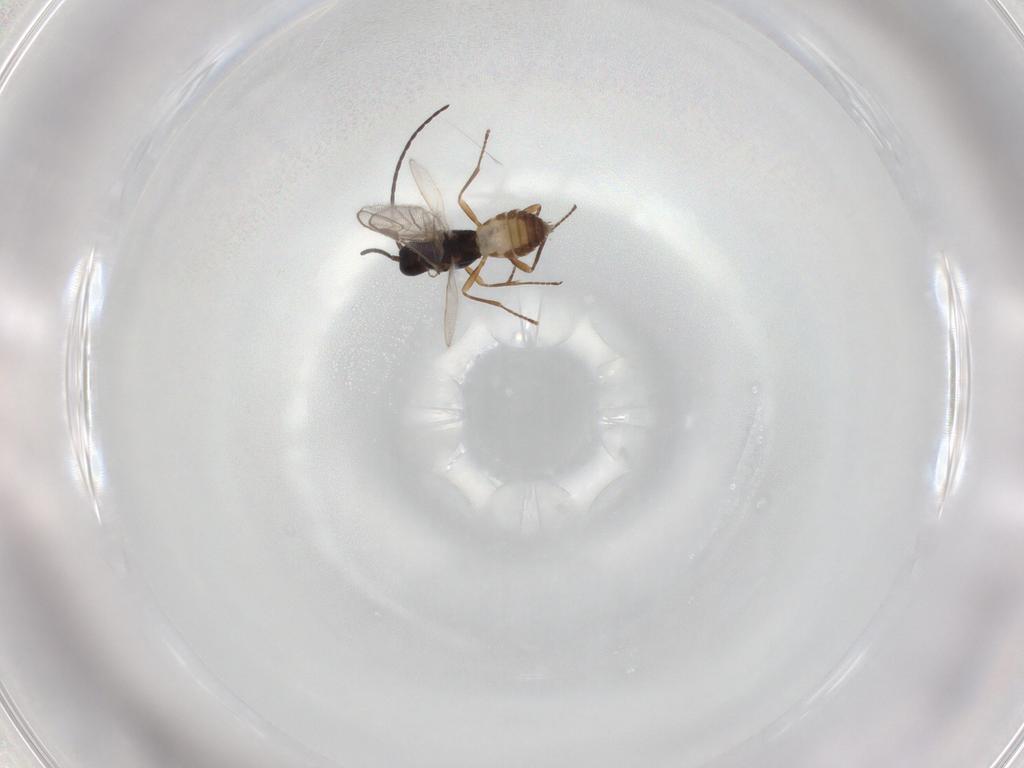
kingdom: Animalia
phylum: Arthropoda
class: Insecta
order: Hymenoptera
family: Braconidae
